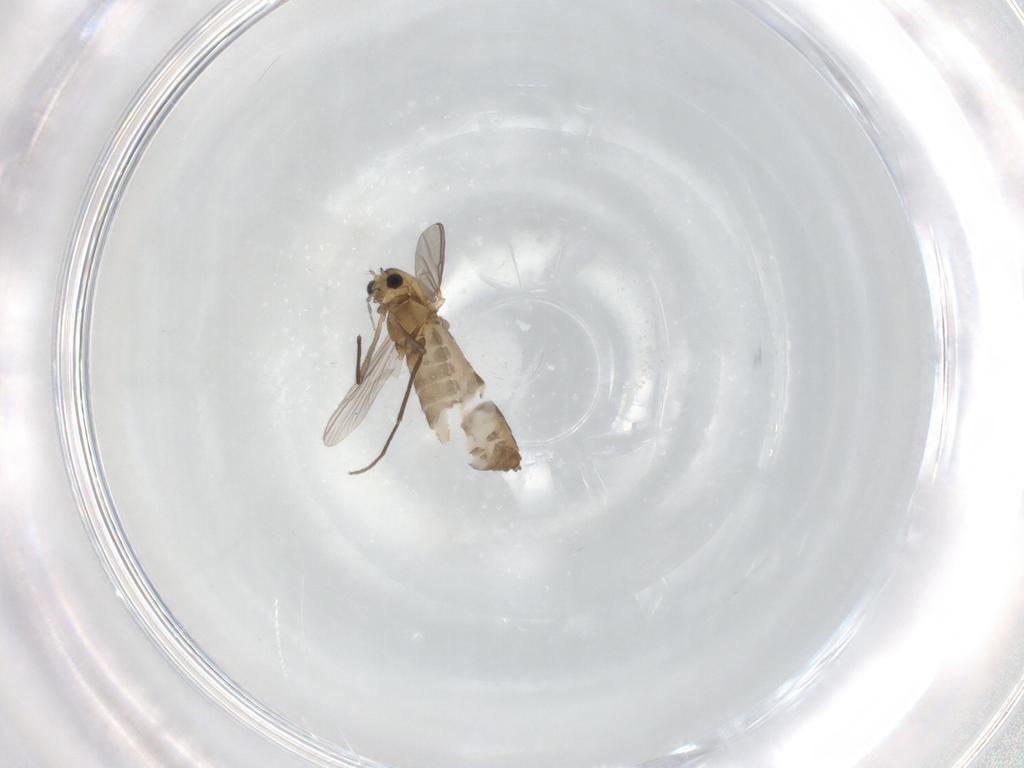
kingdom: Animalia
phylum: Arthropoda
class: Insecta
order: Diptera
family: Chironomidae
